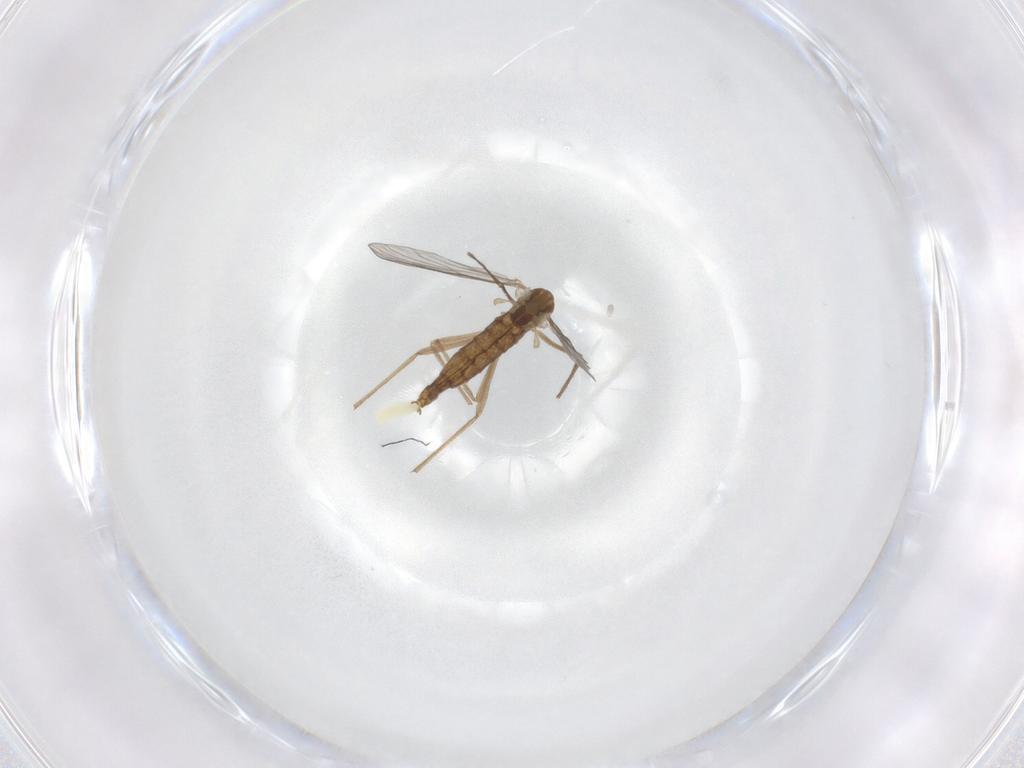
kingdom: Animalia
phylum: Arthropoda
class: Insecta
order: Diptera
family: Chironomidae
